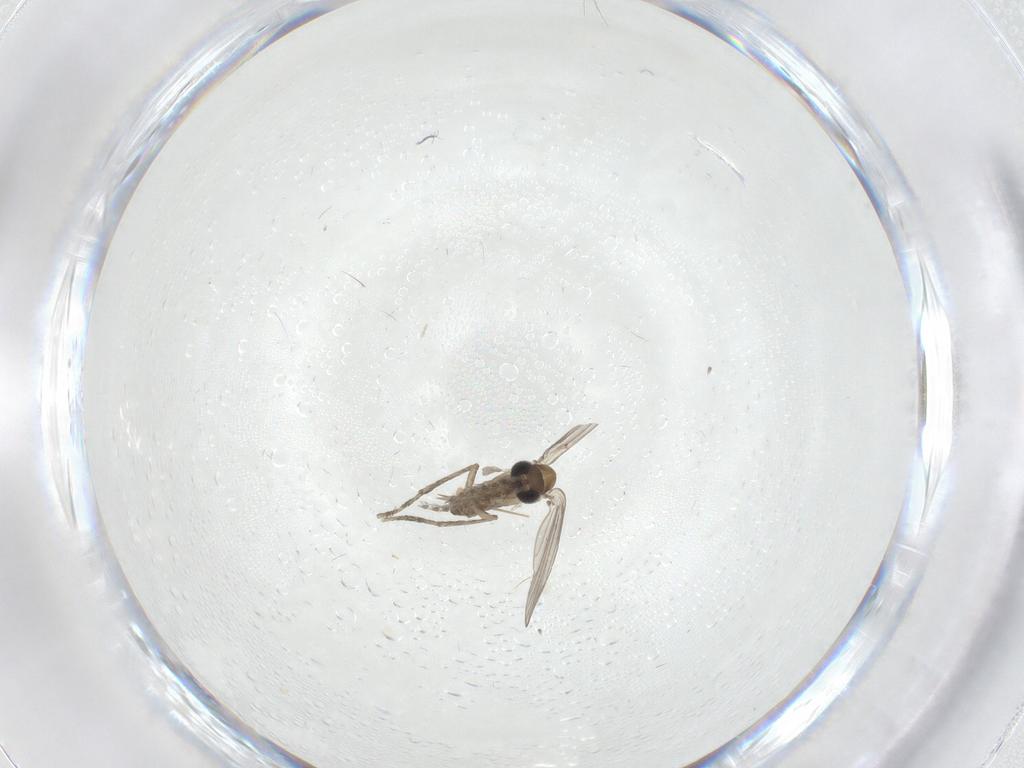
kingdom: Animalia
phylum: Arthropoda
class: Insecta
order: Diptera
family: Psychodidae
